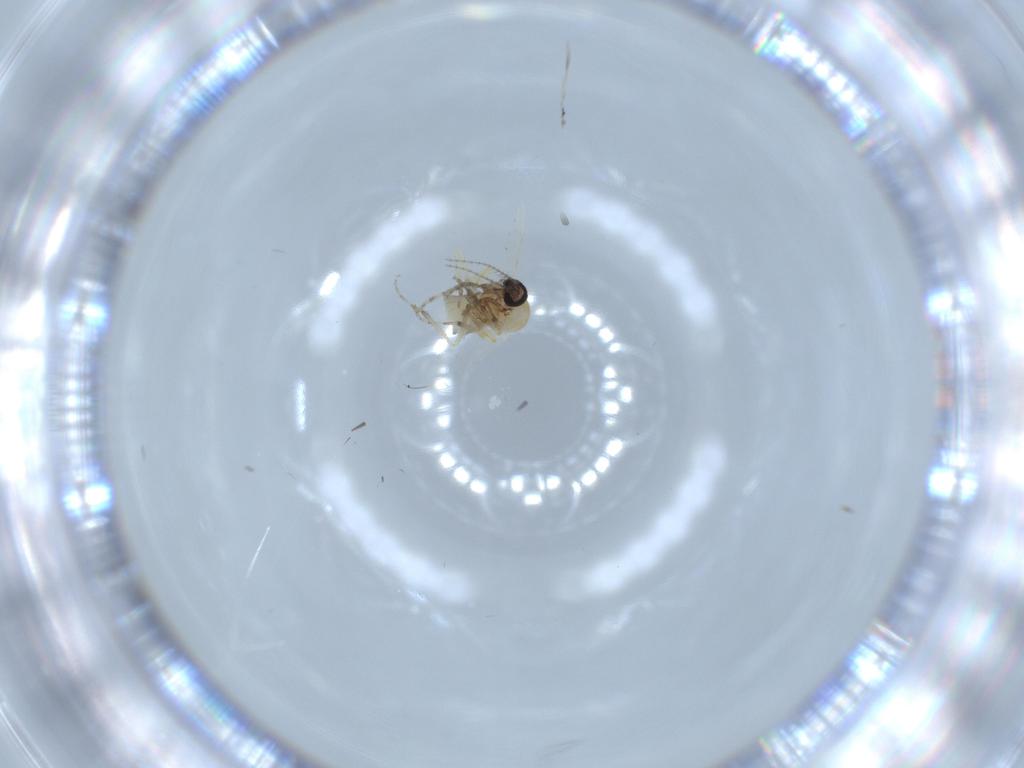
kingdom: Animalia
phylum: Arthropoda
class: Insecta
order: Diptera
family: Ceratopogonidae
